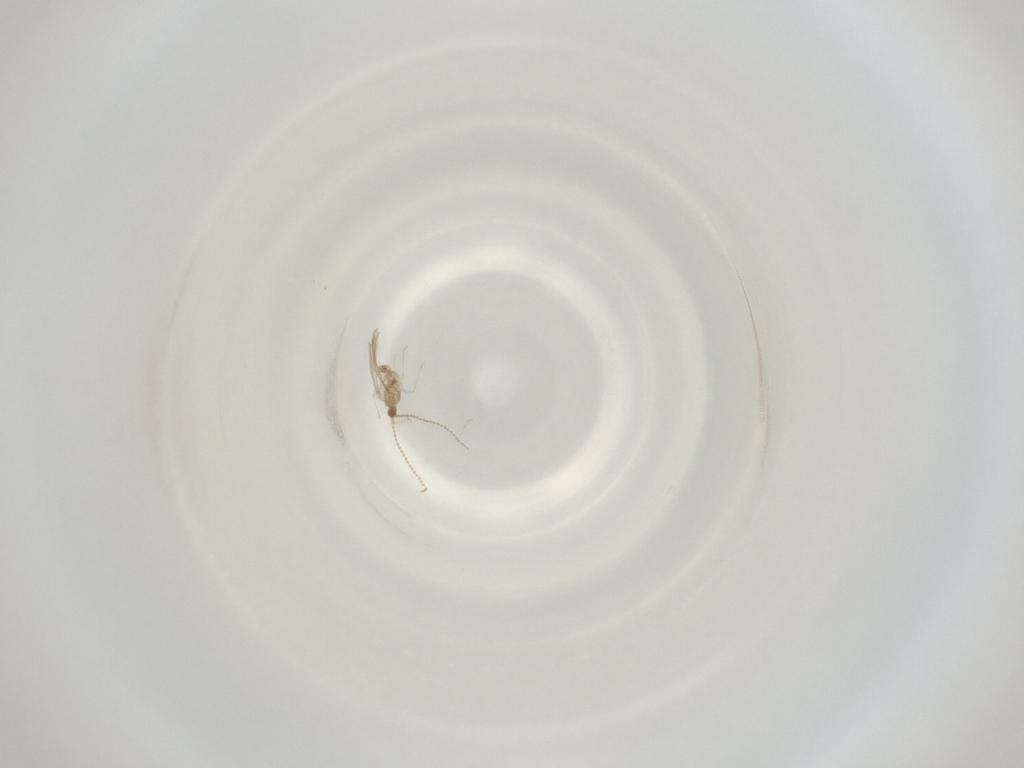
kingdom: Animalia
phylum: Arthropoda
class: Insecta
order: Diptera
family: Cecidomyiidae
